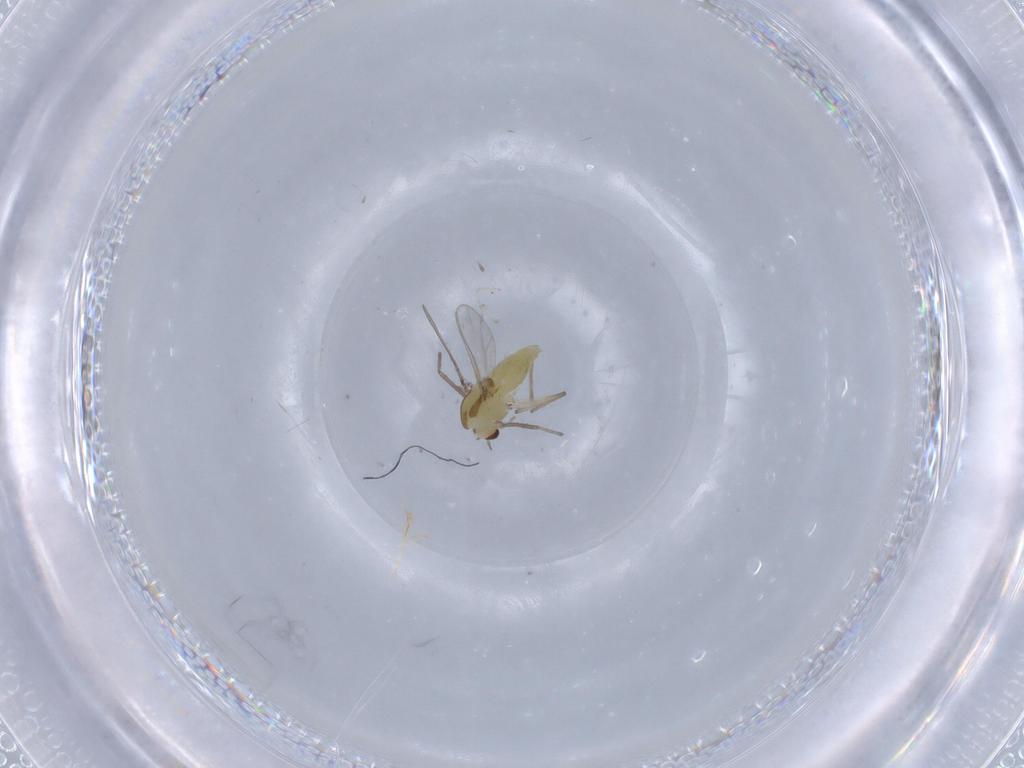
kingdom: Animalia
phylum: Arthropoda
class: Insecta
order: Diptera
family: Chironomidae
